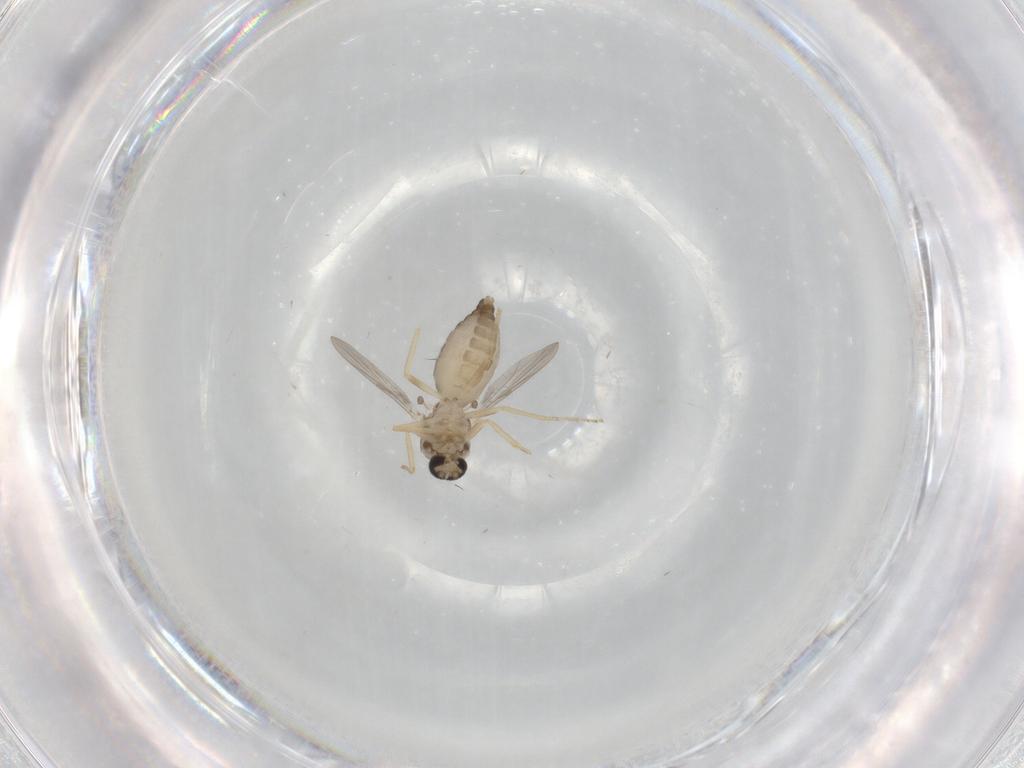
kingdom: Animalia
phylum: Arthropoda
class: Insecta
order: Diptera
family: Ceratopogonidae
